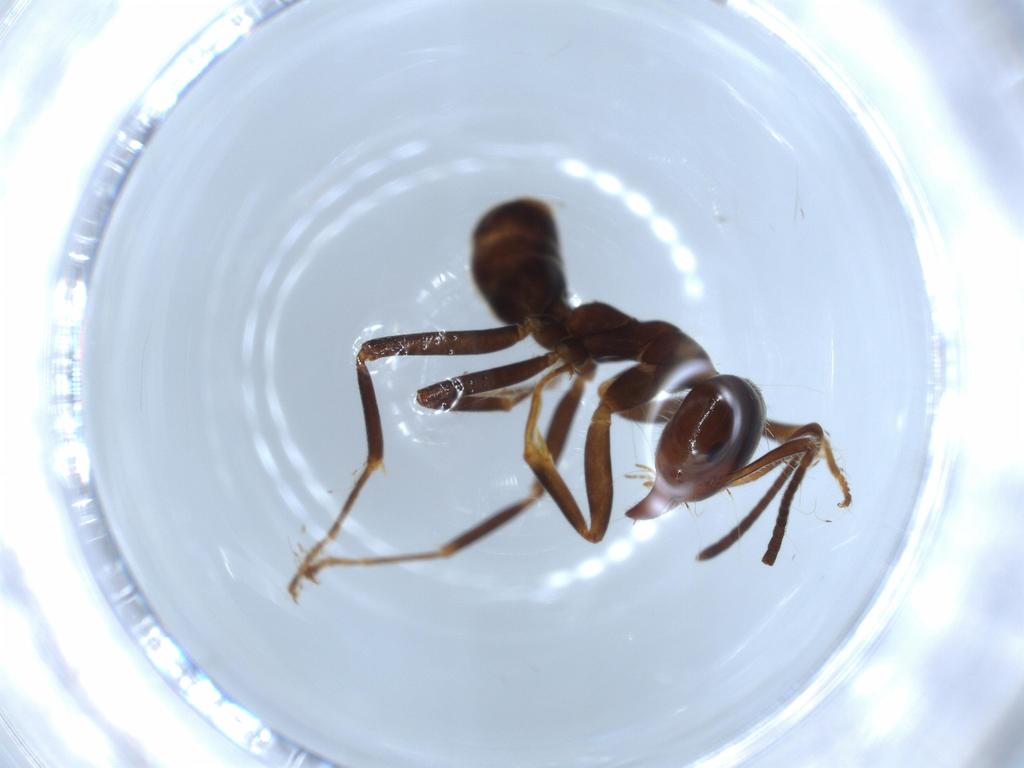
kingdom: Animalia
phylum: Arthropoda
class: Insecta
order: Hymenoptera
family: Formicidae
